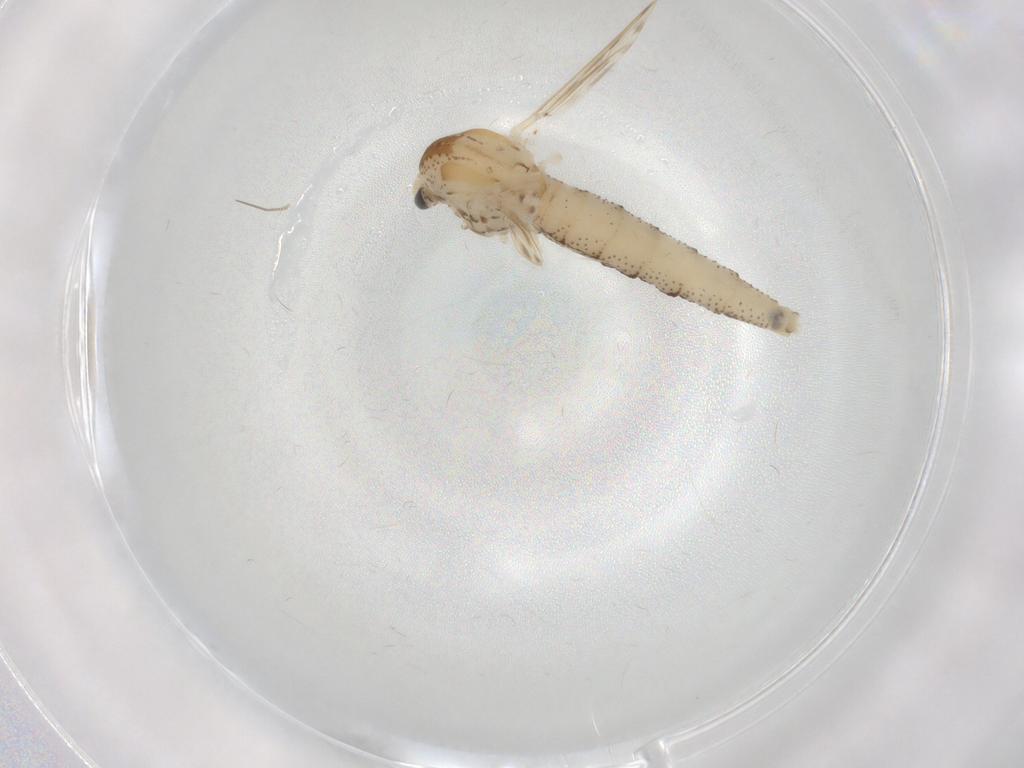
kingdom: Animalia
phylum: Arthropoda
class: Insecta
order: Diptera
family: Chaoboridae
